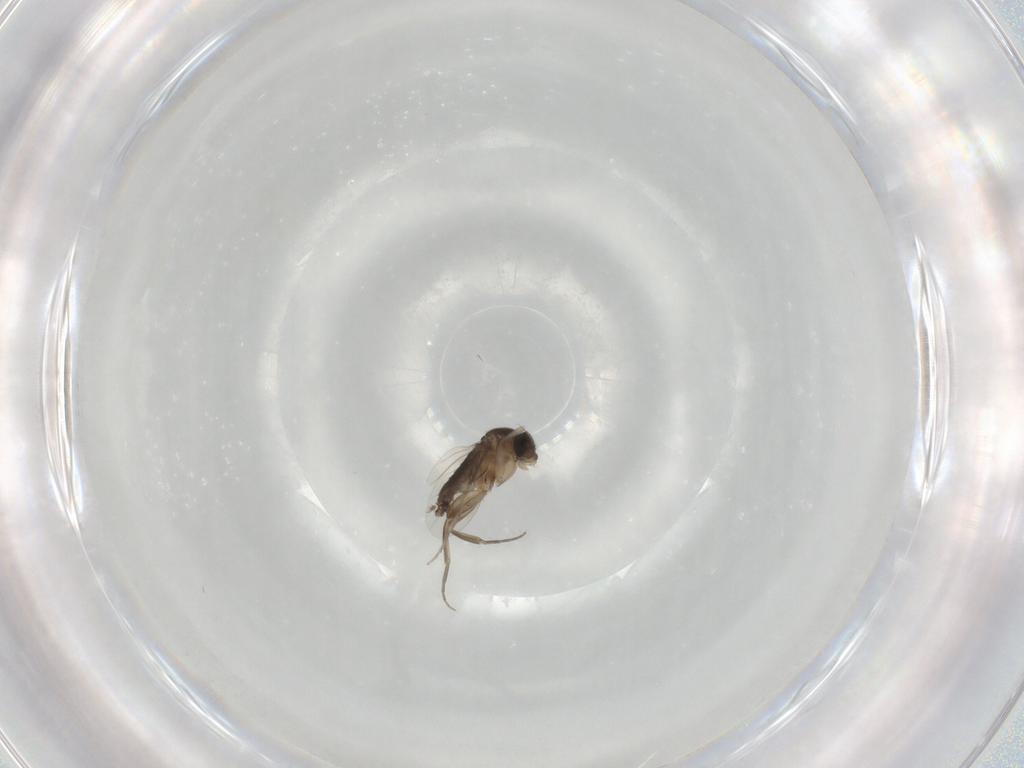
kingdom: Animalia
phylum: Arthropoda
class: Insecta
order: Diptera
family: Phoridae
